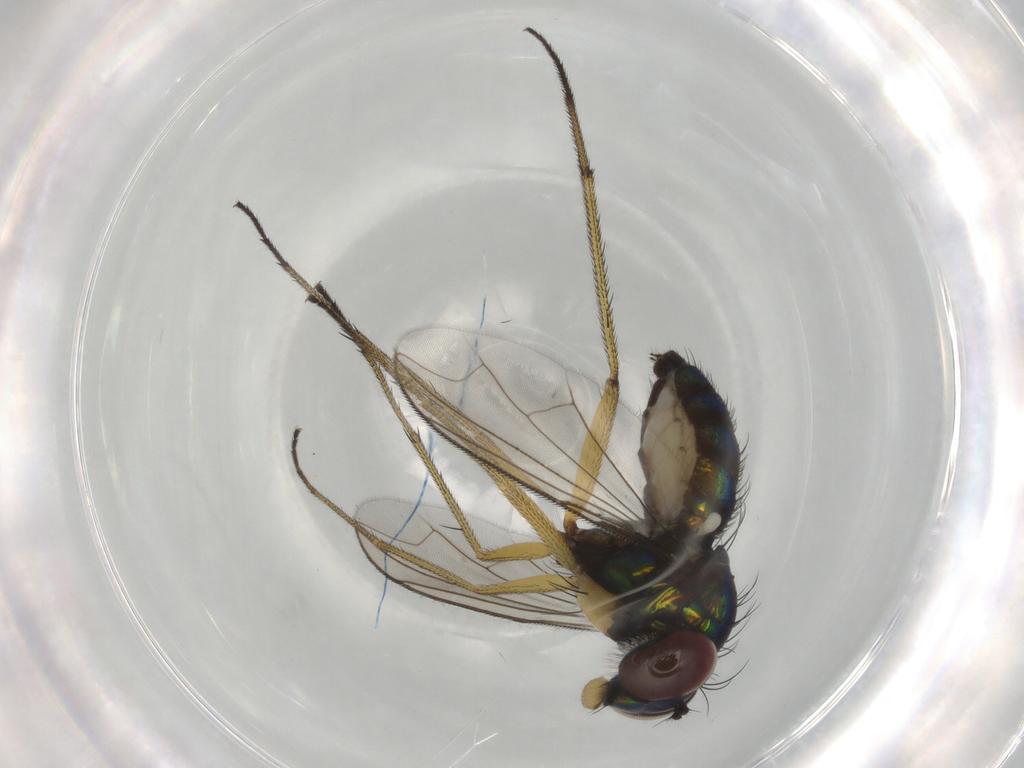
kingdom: Animalia
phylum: Arthropoda
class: Insecta
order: Diptera
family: Dolichopodidae
